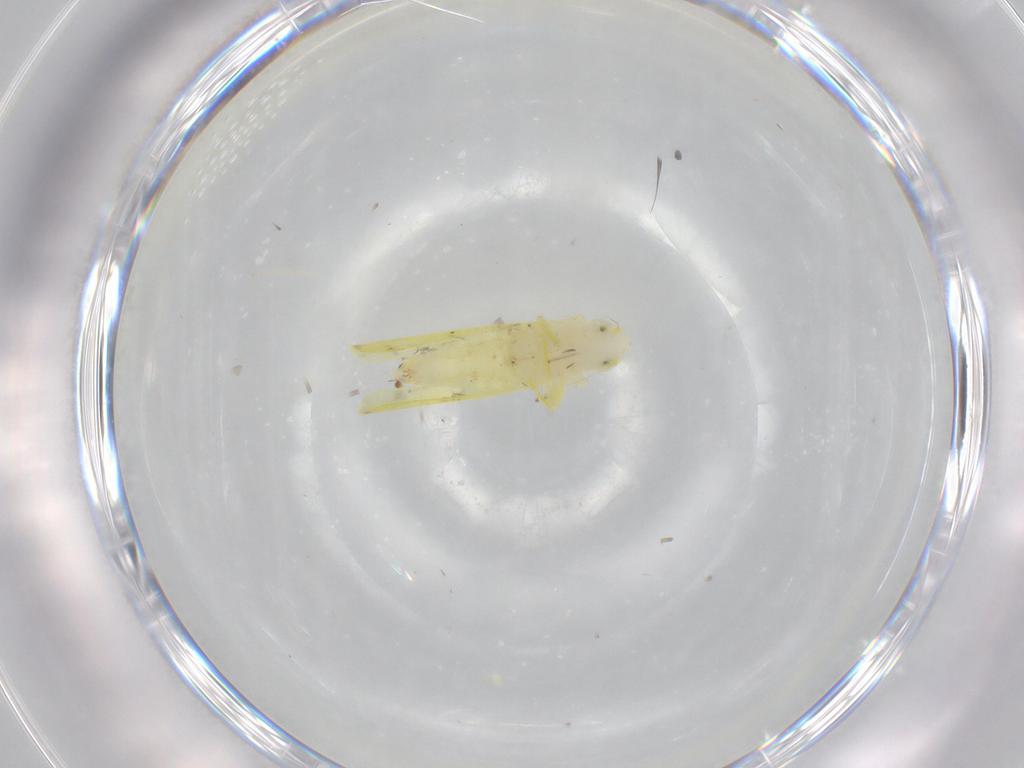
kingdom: Animalia
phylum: Arthropoda
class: Insecta
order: Hemiptera
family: Cicadellidae
